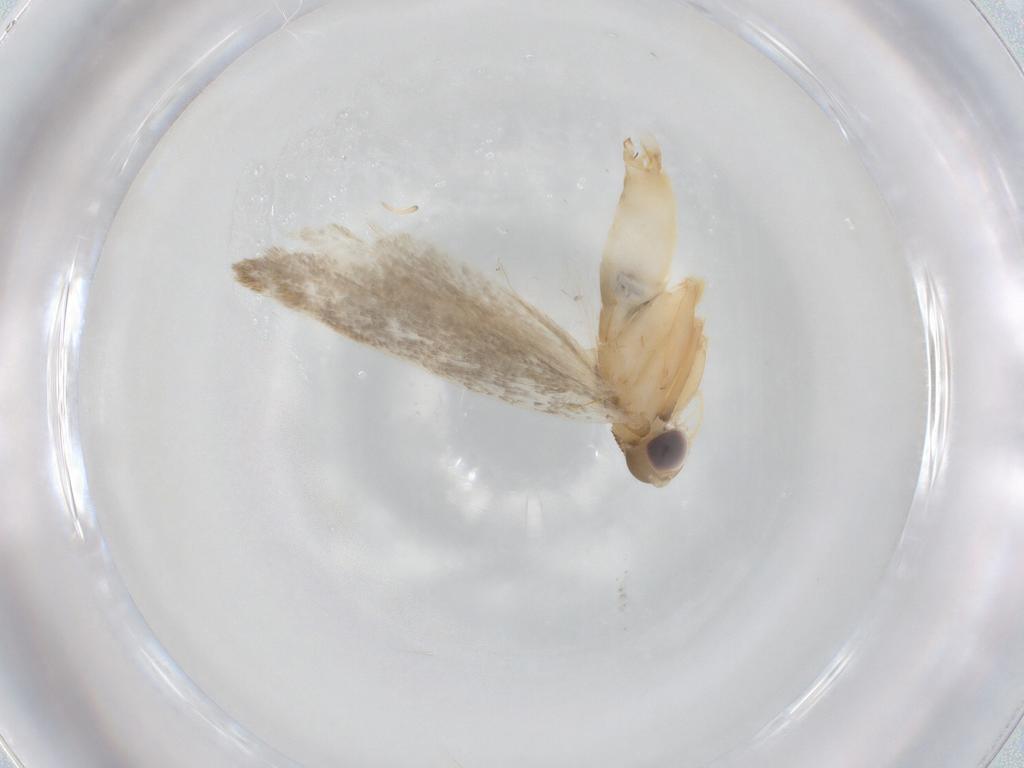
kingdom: Animalia
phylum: Arthropoda
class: Insecta
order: Lepidoptera
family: Autostichidae
